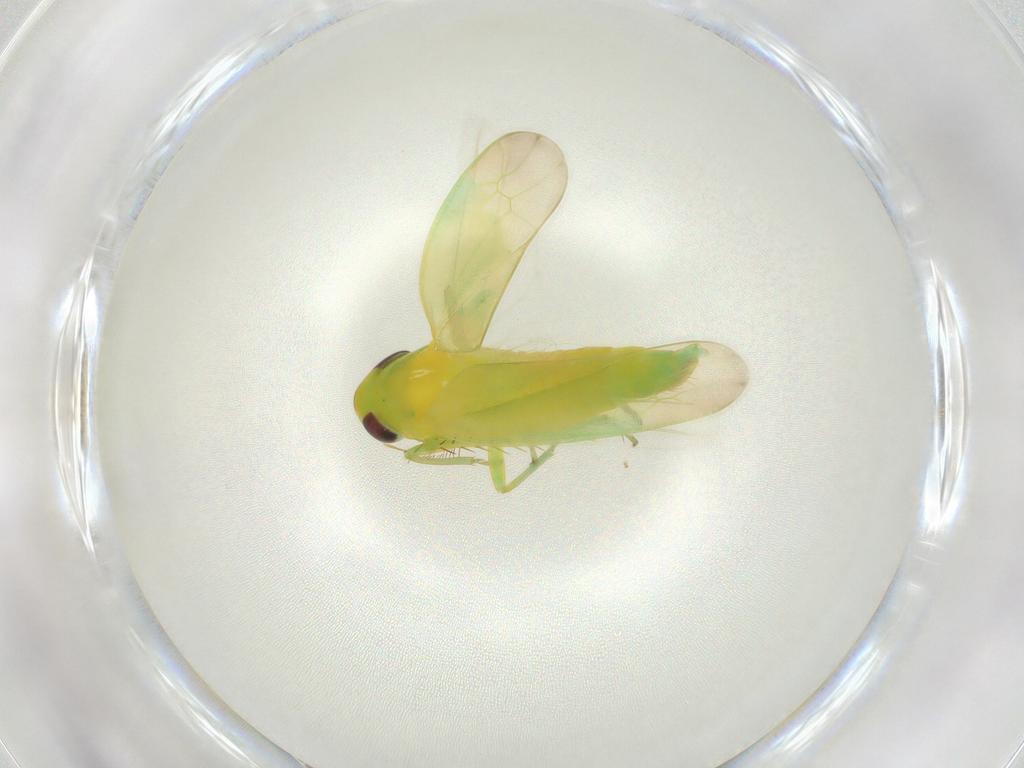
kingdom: Animalia
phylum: Arthropoda
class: Insecta
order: Hemiptera
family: Cicadellidae
